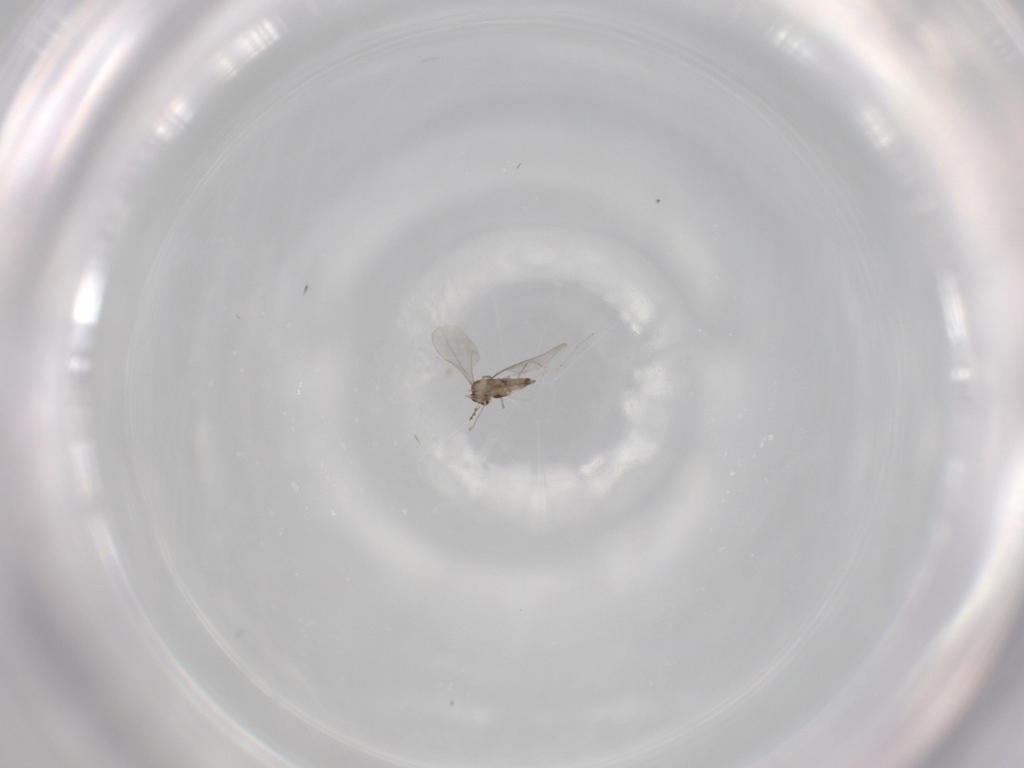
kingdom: Animalia
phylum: Arthropoda
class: Insecta
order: Diptera
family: Cecidomyiidae
